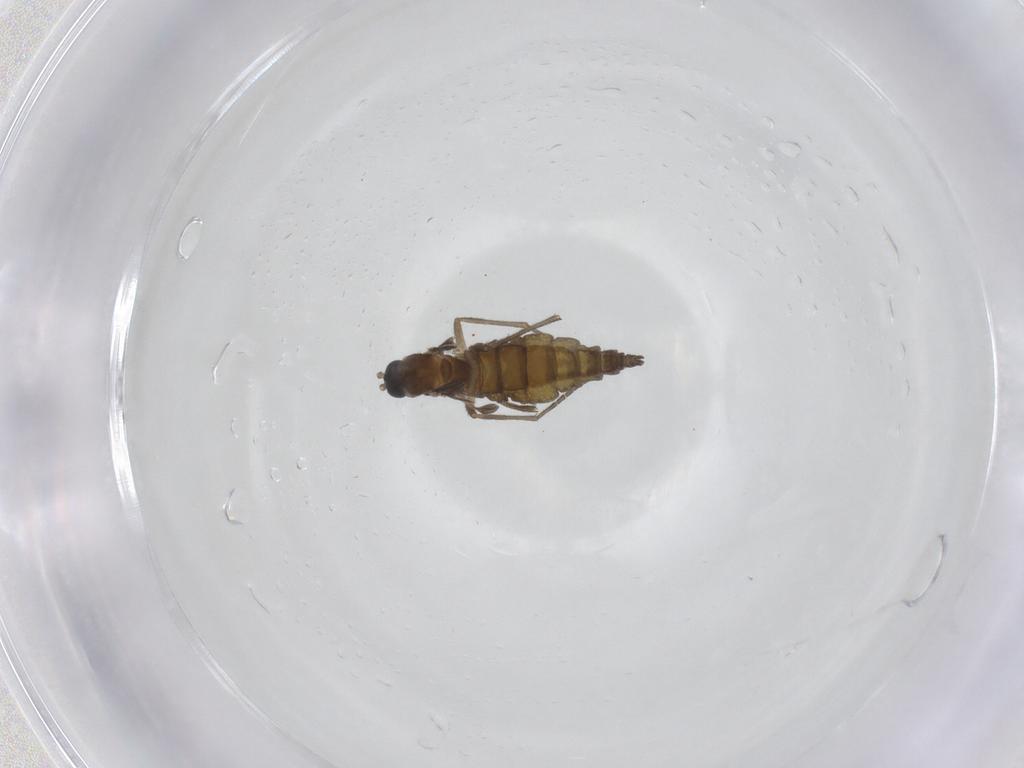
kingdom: Animalia
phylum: Arthropoda
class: Insecta
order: Diptera
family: Sciaridae
